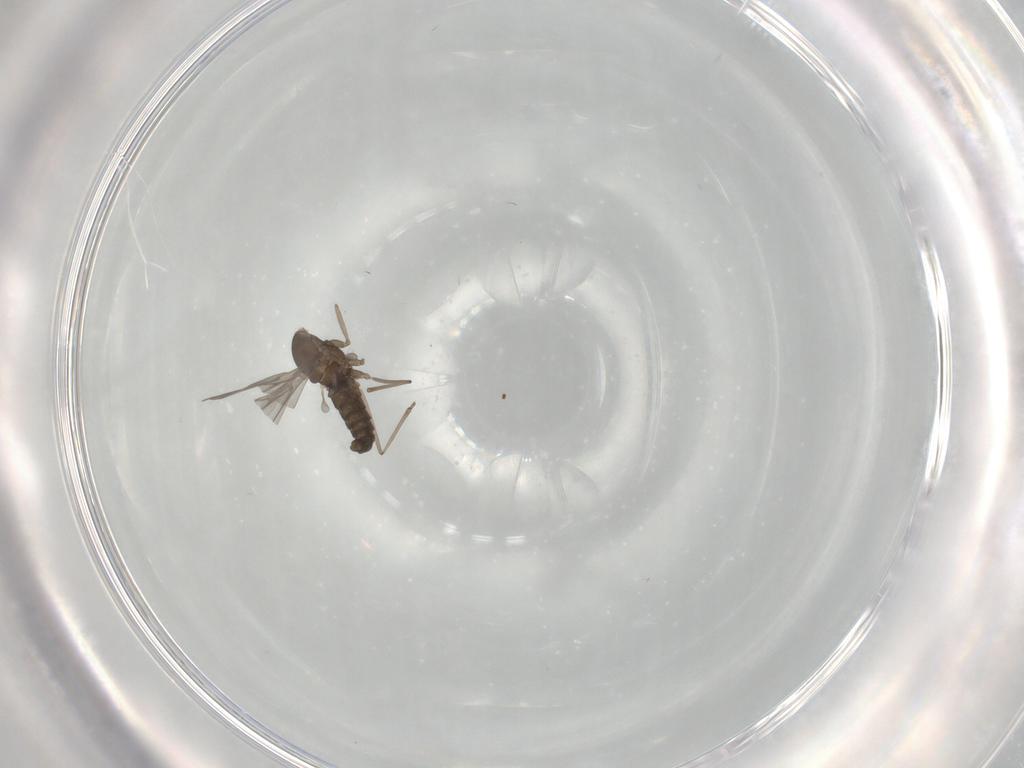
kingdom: Animalia
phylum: Arthropoda
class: Insecta
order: Diptera
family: Cecidomyiidae
